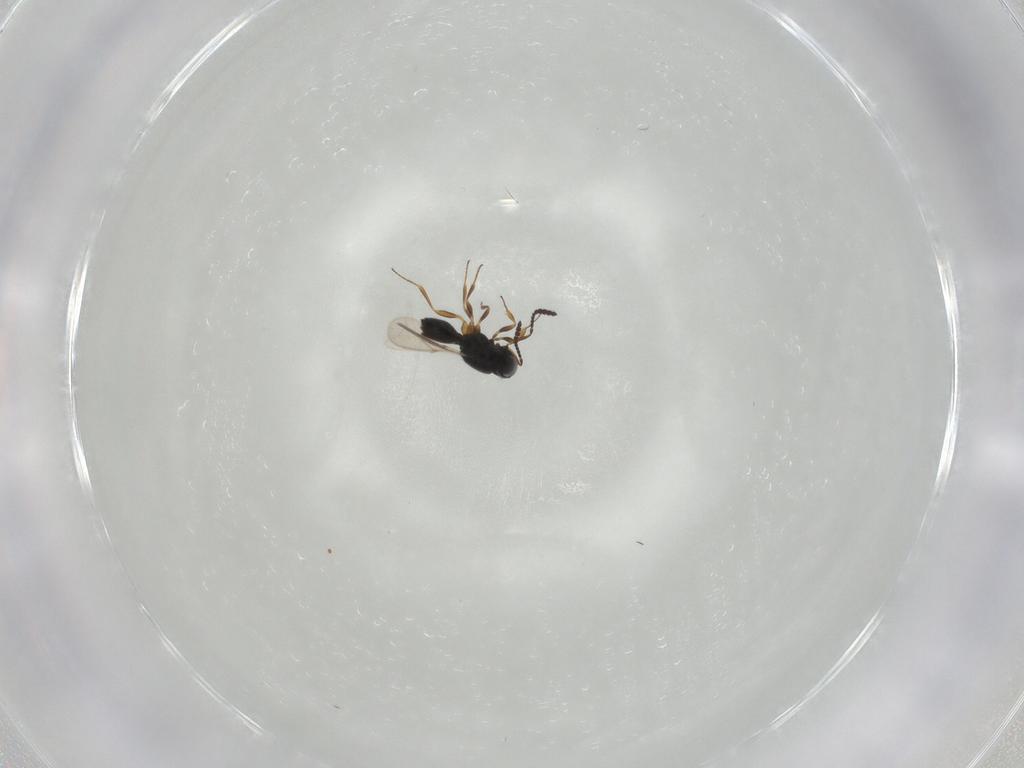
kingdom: Animalia
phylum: Arthropoda
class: Insecta
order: Hymenoptera
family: Scelionidae
